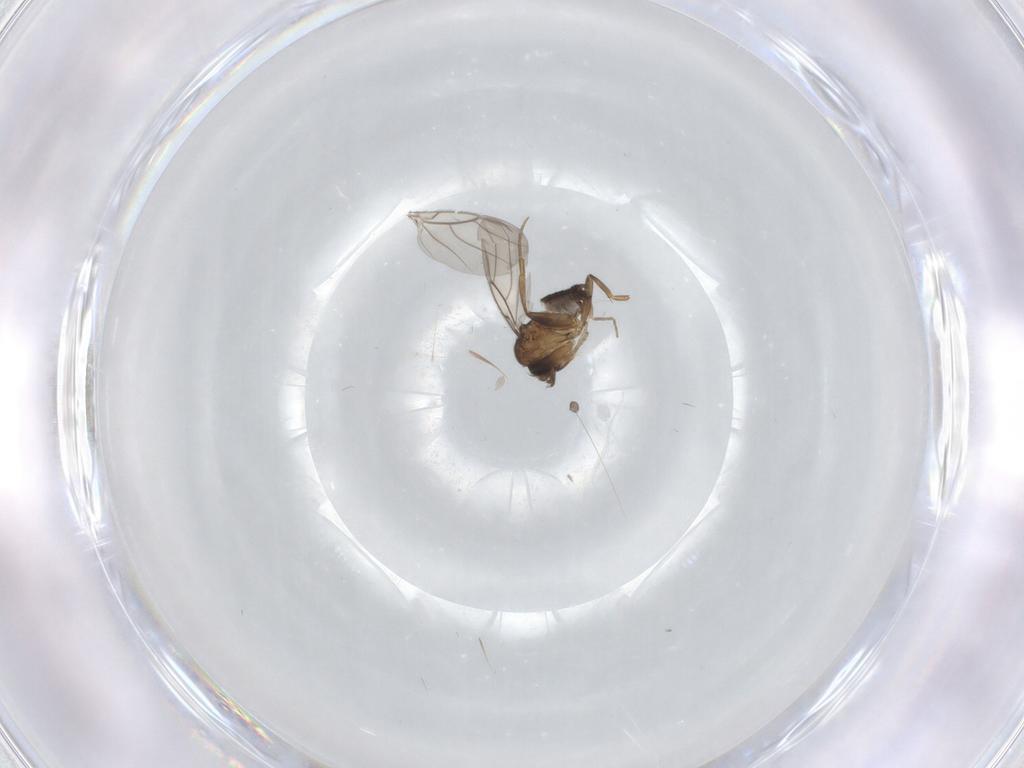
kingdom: Animalia
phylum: Arthropoda
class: Insecta
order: Diptera
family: Phoridae
